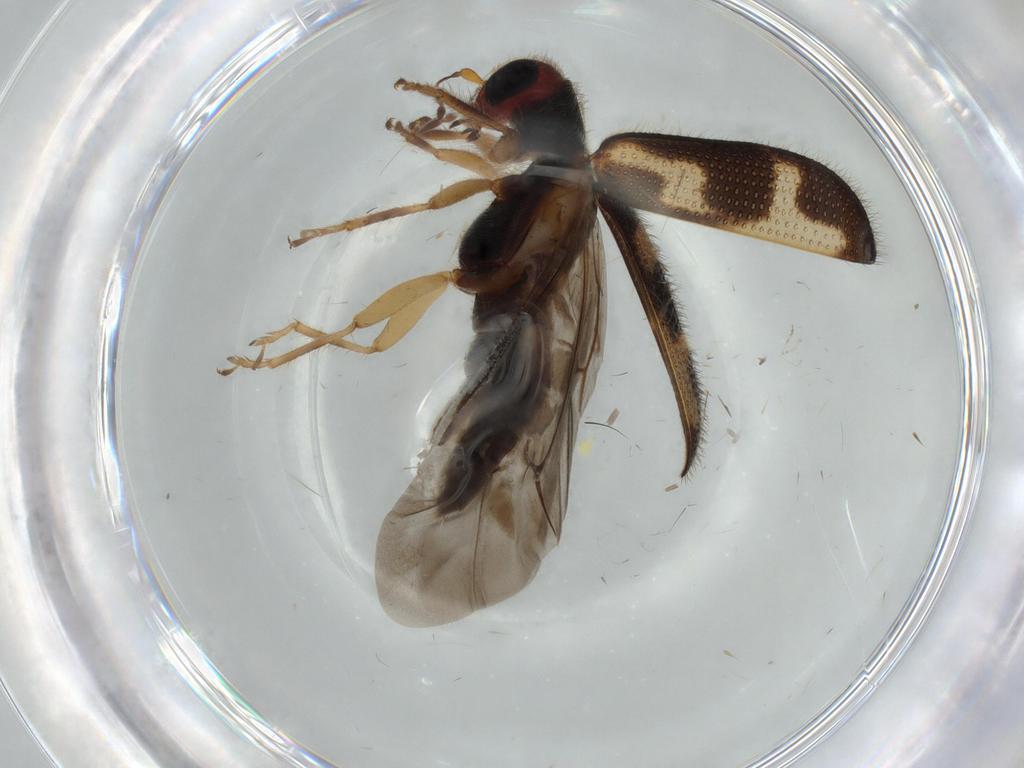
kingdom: Animalia
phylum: Arthropoda
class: Insecta
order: Coleoptera
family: Cleridae
